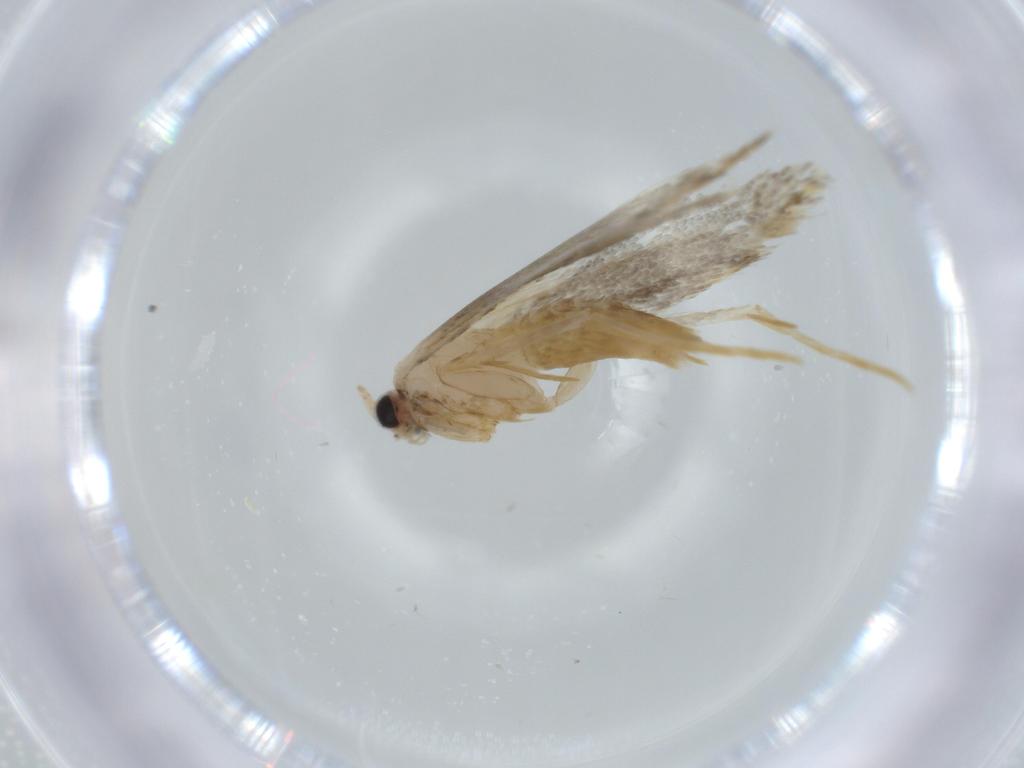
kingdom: Animalia
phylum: Arthropoda
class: Insecta
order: Lepidoptera
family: Tineidae
